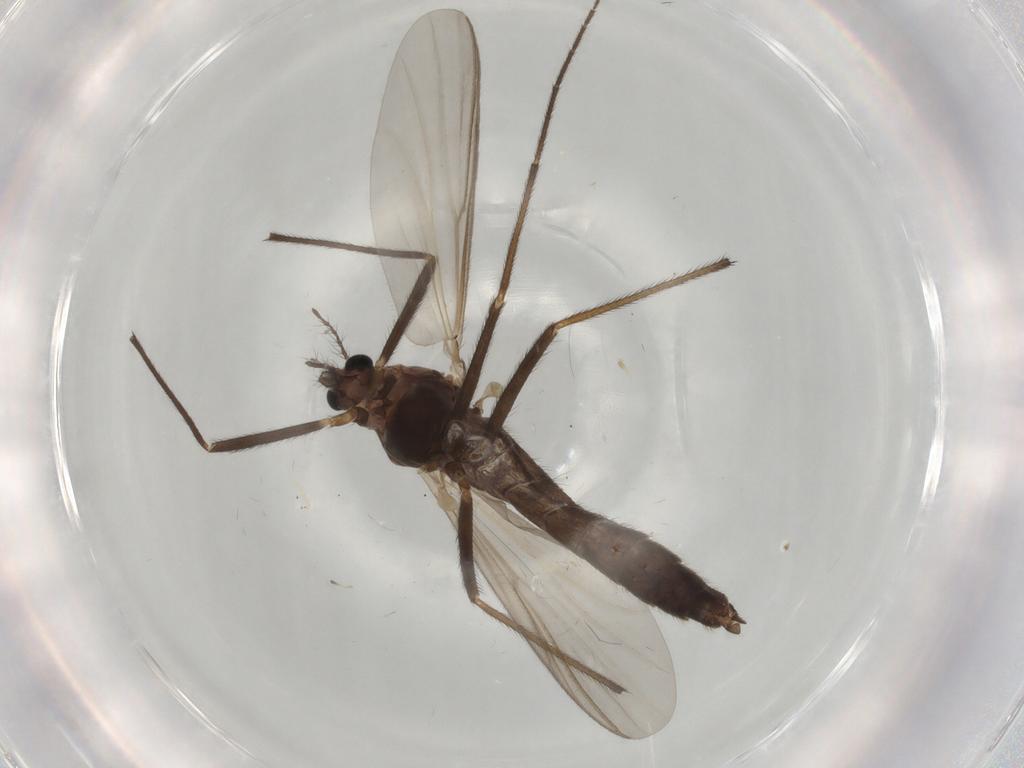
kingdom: Animalia
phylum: Arthropoda
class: Insecta
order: Diptera
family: Chironomidae
